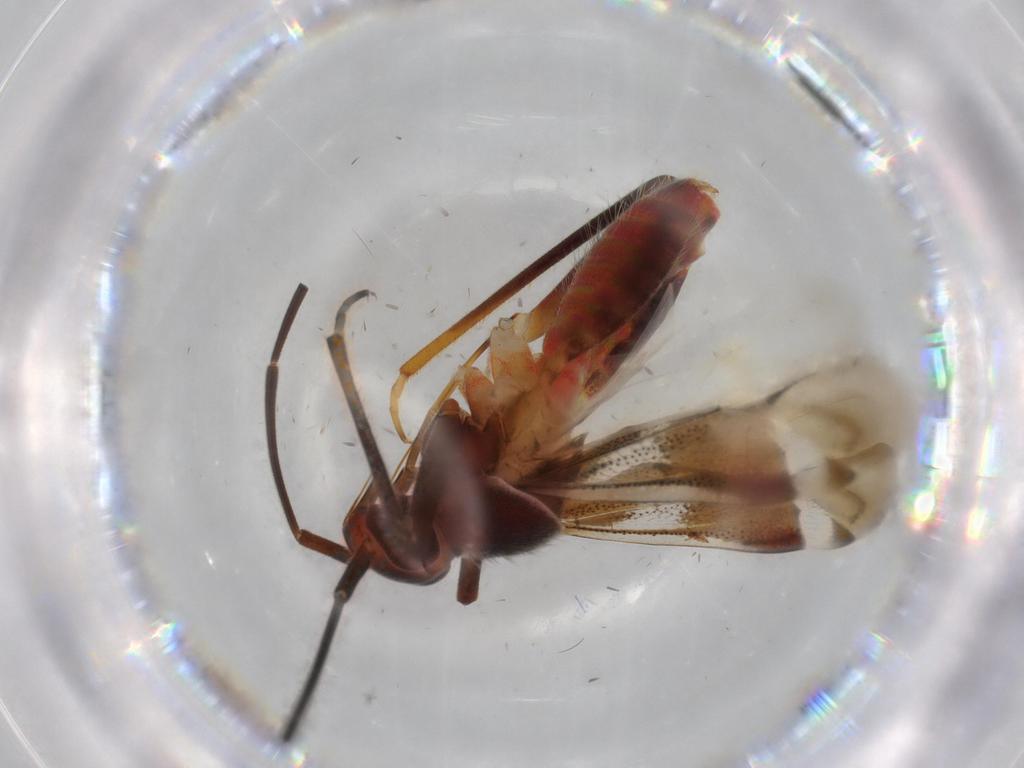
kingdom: Animalia
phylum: Arthropoda
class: Insecta
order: Hemiptera
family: Miridae
